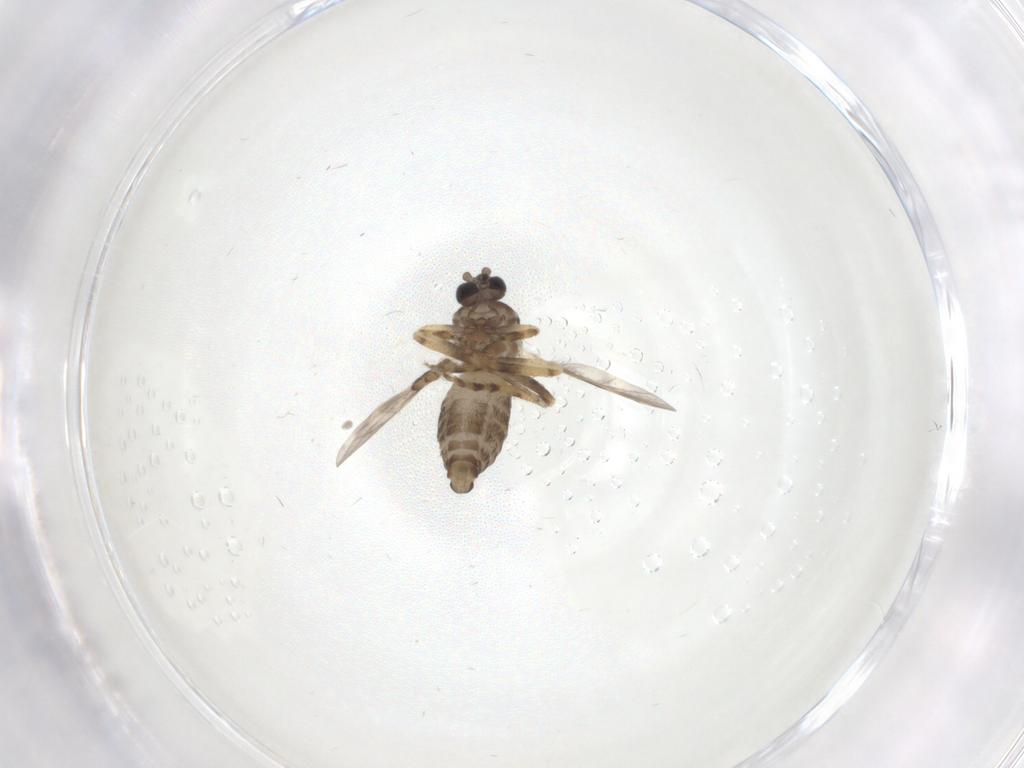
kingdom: Animalia
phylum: Arthropoda
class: Insecta
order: Diptera
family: Ceratopogonidae
